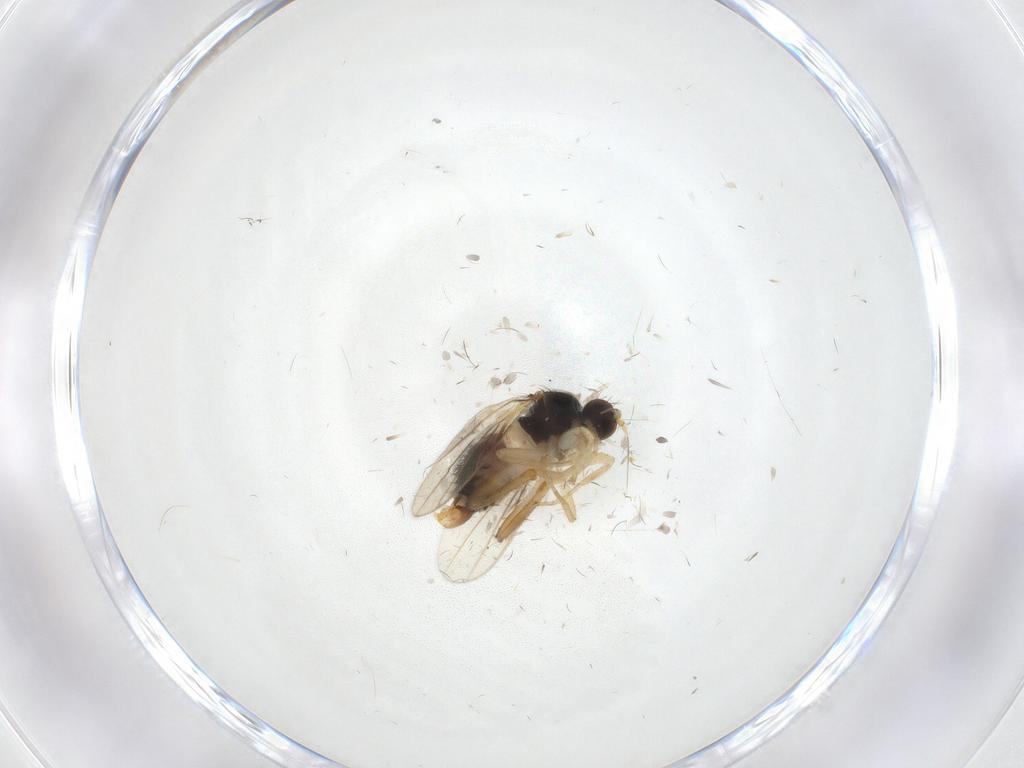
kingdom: Animalia
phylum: Arthropoda
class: Insecta
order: Diptera
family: Hybotidae
